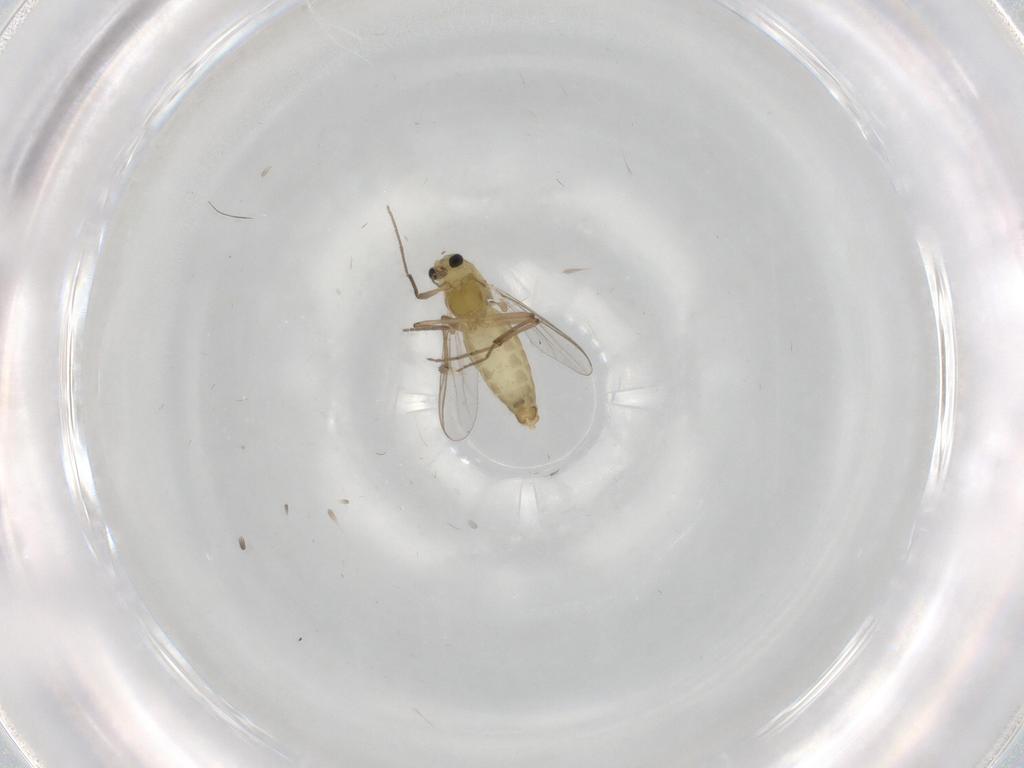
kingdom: Animalia
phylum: Arthropoda
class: Insecta
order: Diptera
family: Chironomidae
